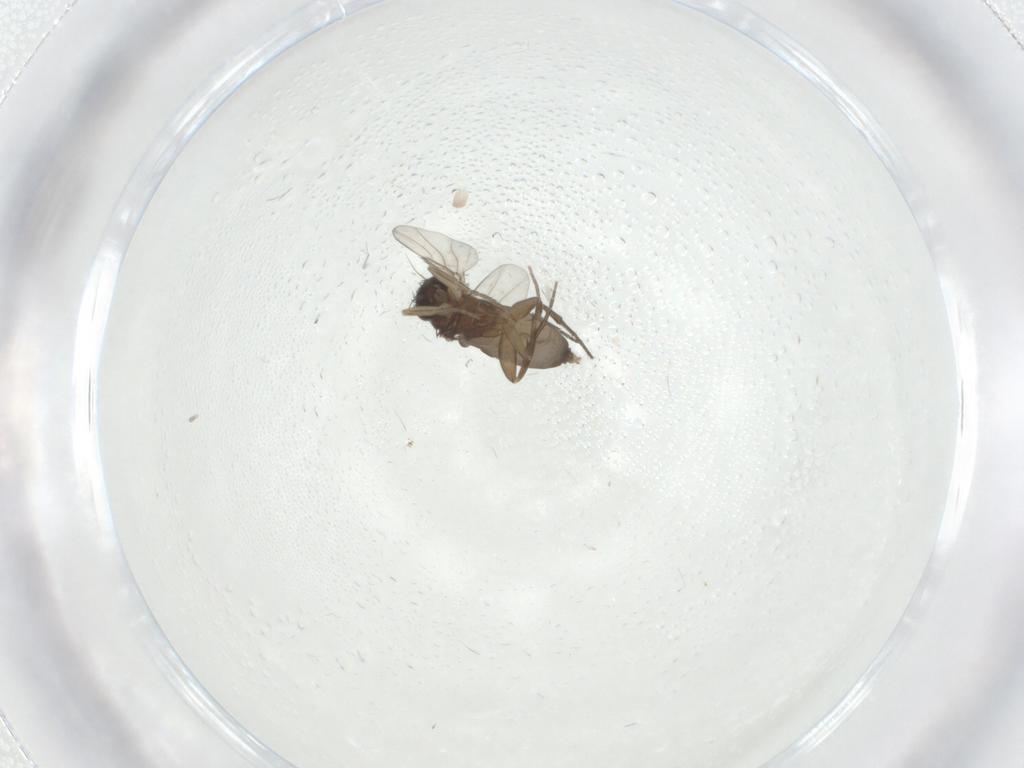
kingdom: Animalia
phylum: Arthropoda
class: Insecta
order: Diptera
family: Phoridae
